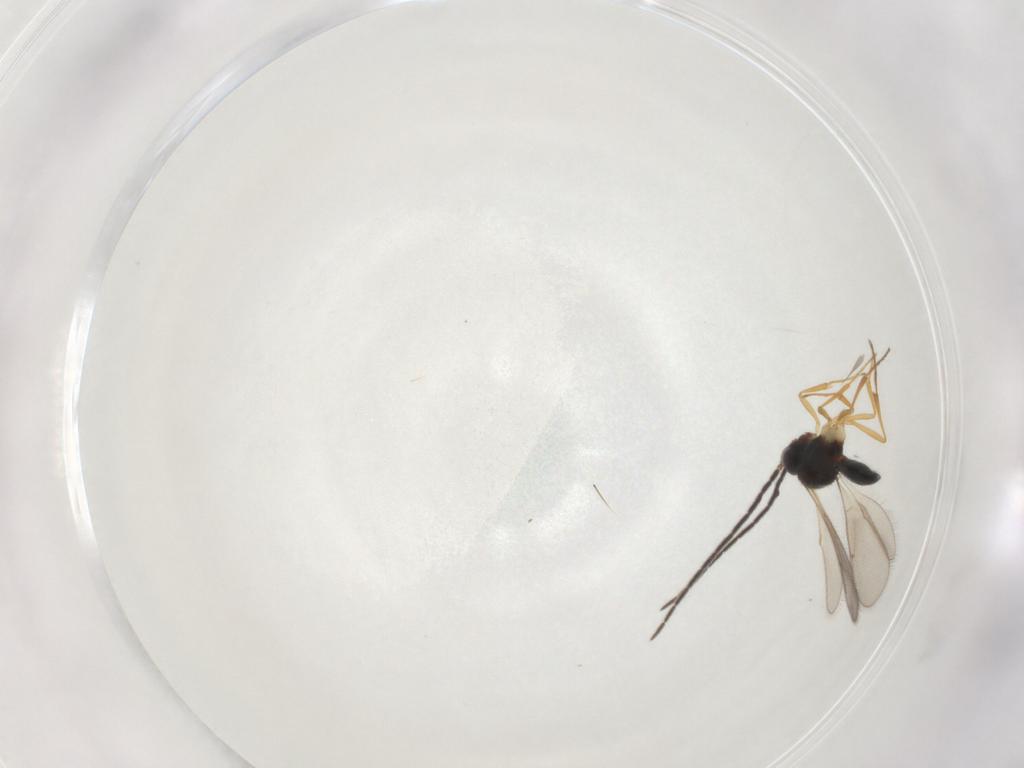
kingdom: Animalia
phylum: Arthropoda
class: Insecta
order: Hymenoptera
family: Scelionidae
